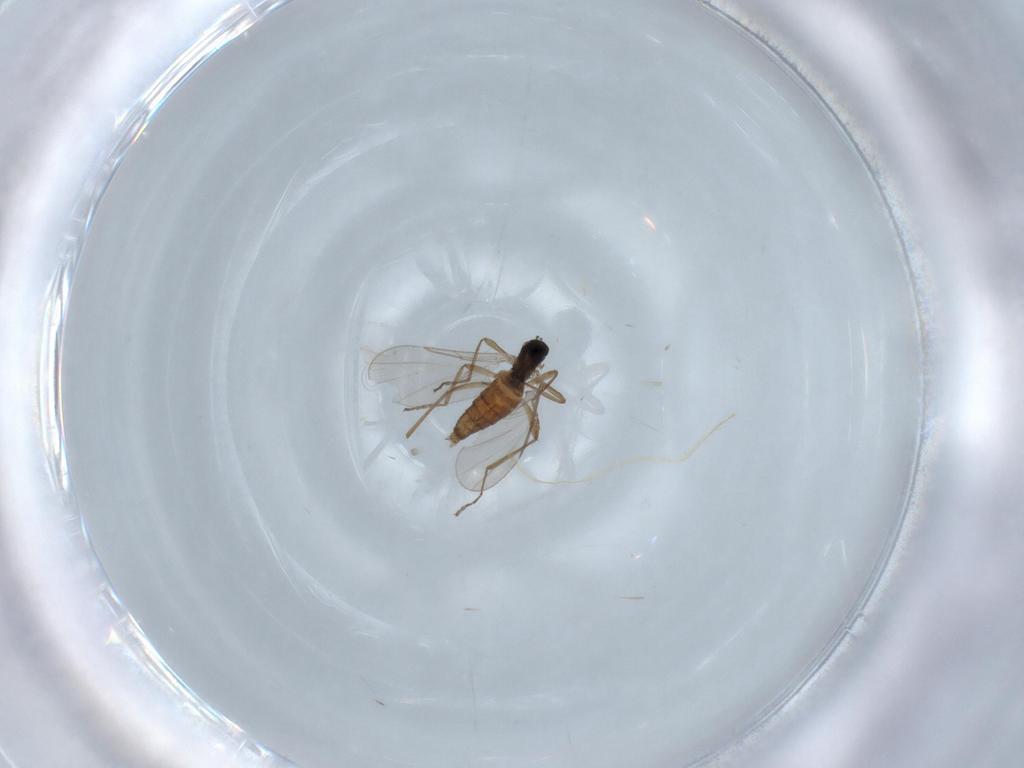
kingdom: Animalia
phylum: Arthropoda
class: Insecta
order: Diptera
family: Cecidomyiidae
